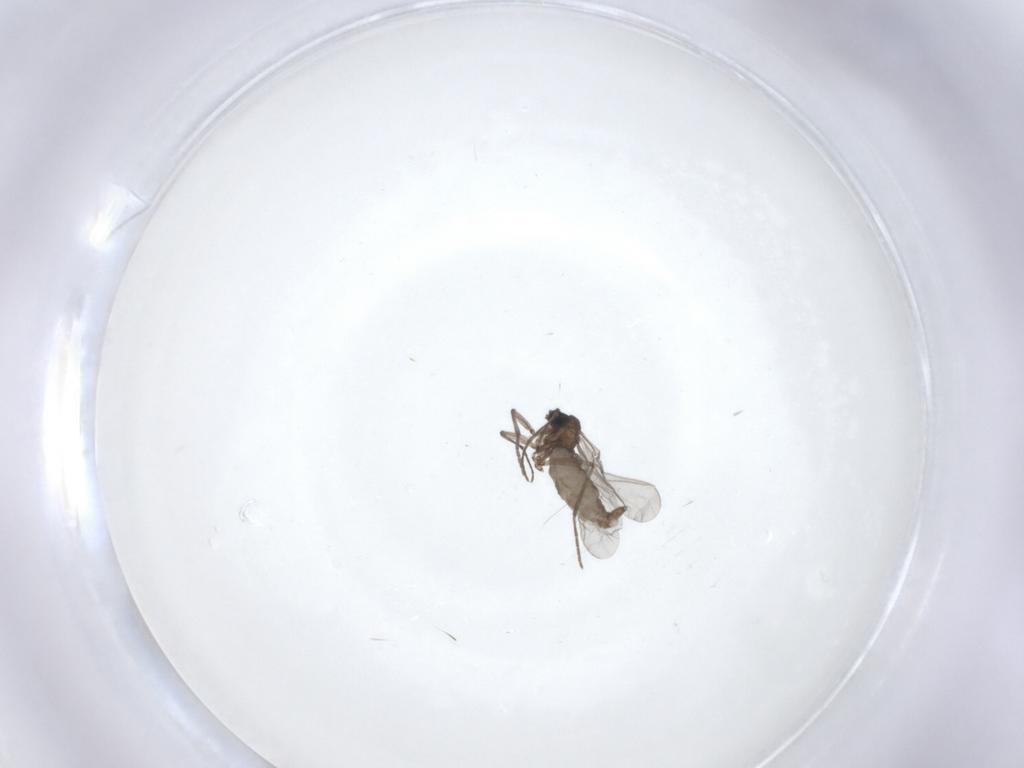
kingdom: Animalia
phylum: Arthropoda
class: Insecta
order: Diptera
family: Sciaridae
